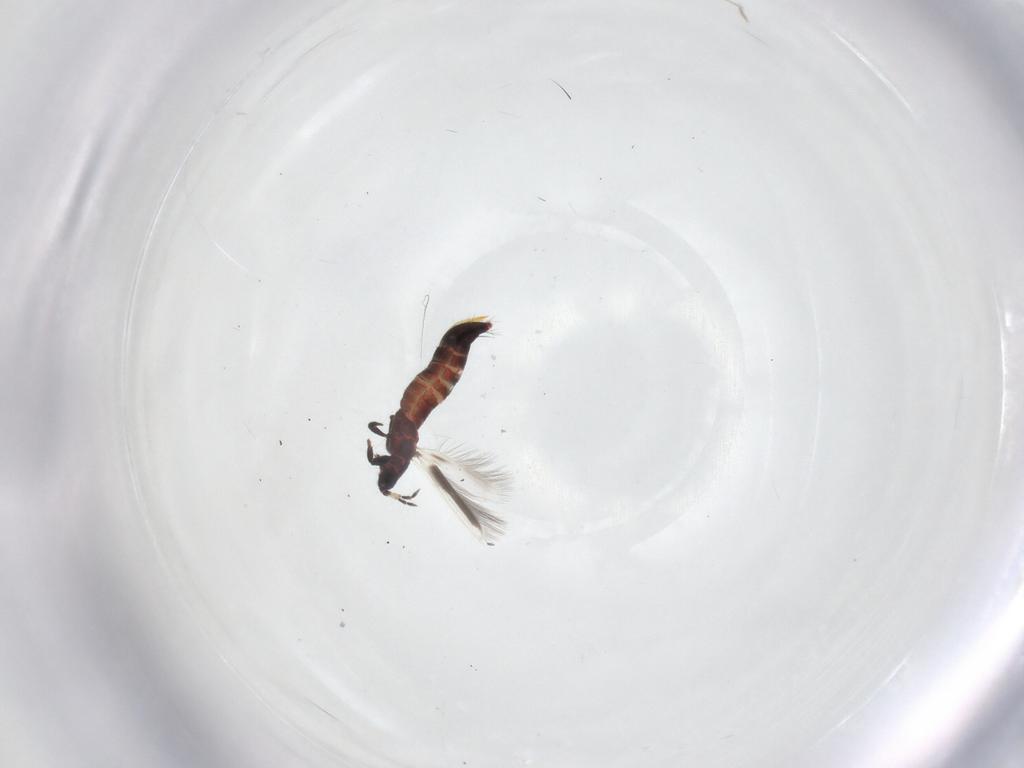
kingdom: Animalia
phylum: Arthropoda
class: Insecta
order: Thysanoptera
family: Aeolothripidae
